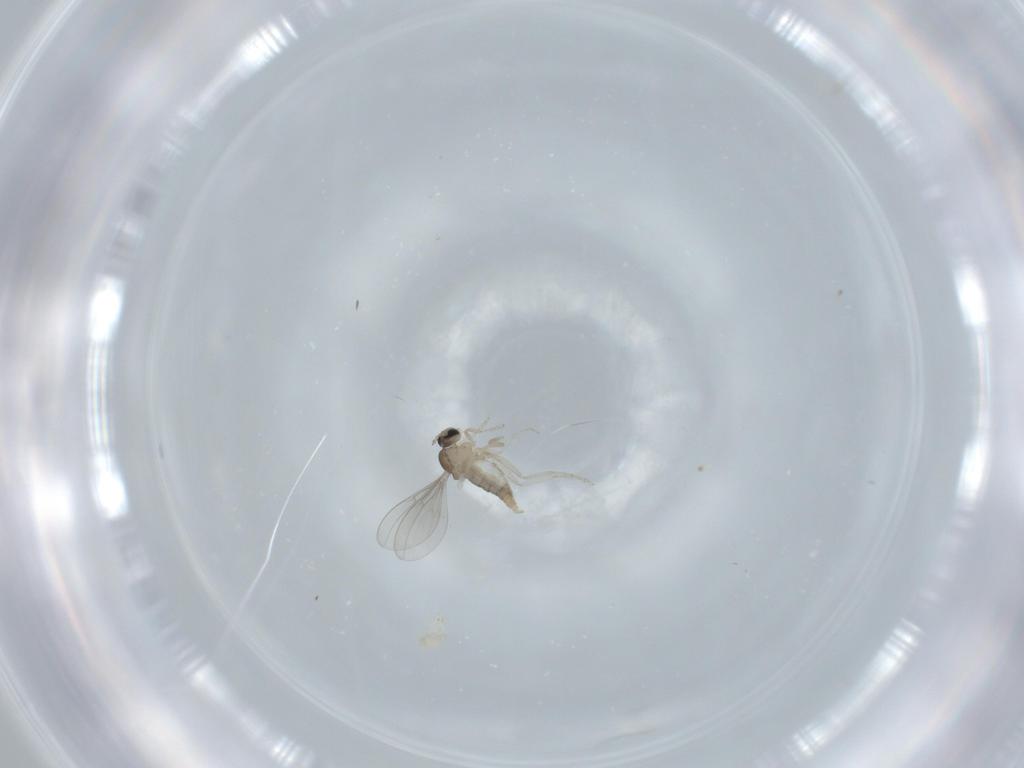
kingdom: Animalia
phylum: Arthropoda
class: Insecta
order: Diptera
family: Cecidomyiidae
